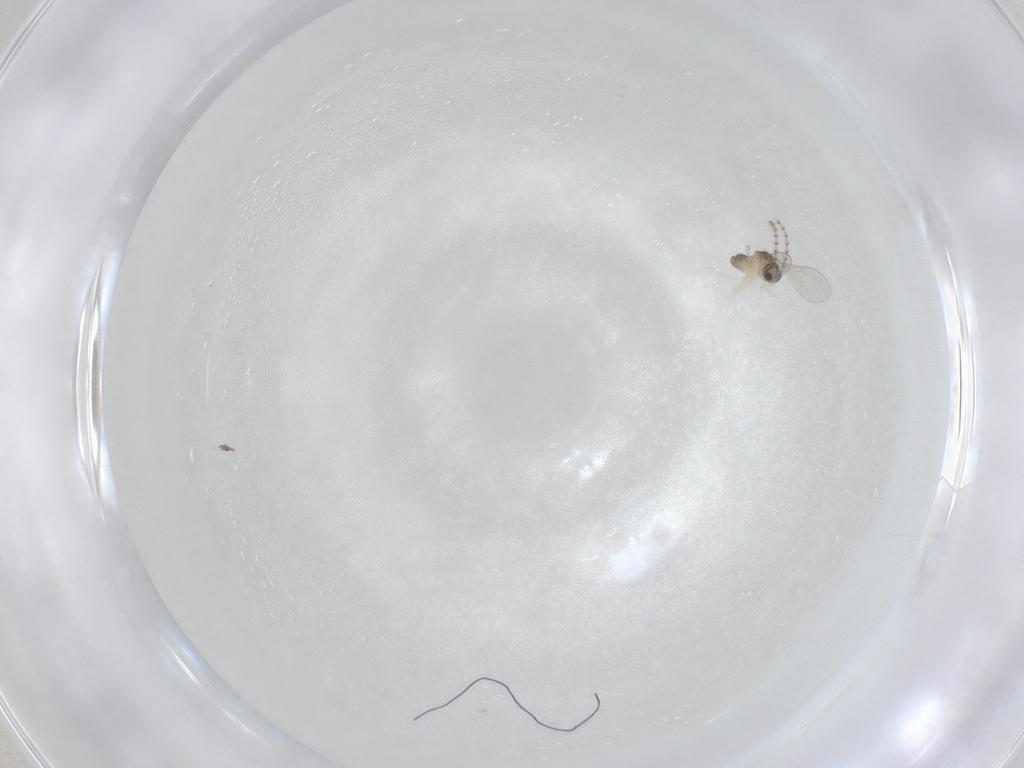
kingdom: Animalia
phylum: Arthropoda
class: Insecta
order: Diptera
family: Cecidomyiidae
